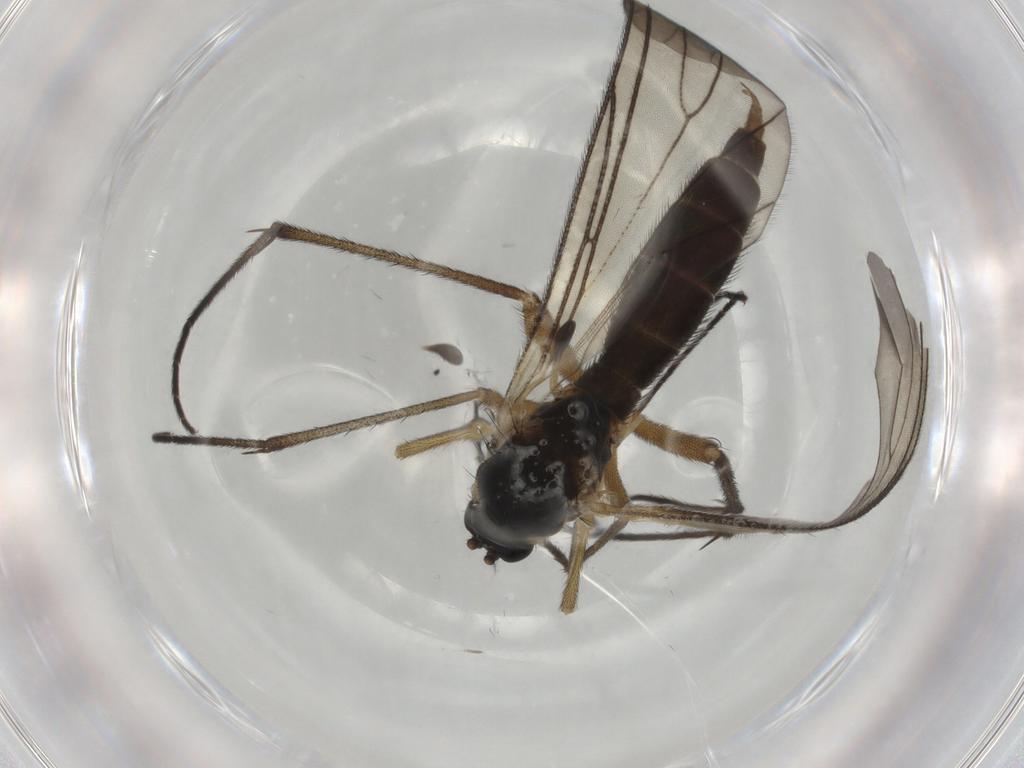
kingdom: Animalia
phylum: Arthropoda
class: Insecta
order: Diptera
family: Sciaridae
